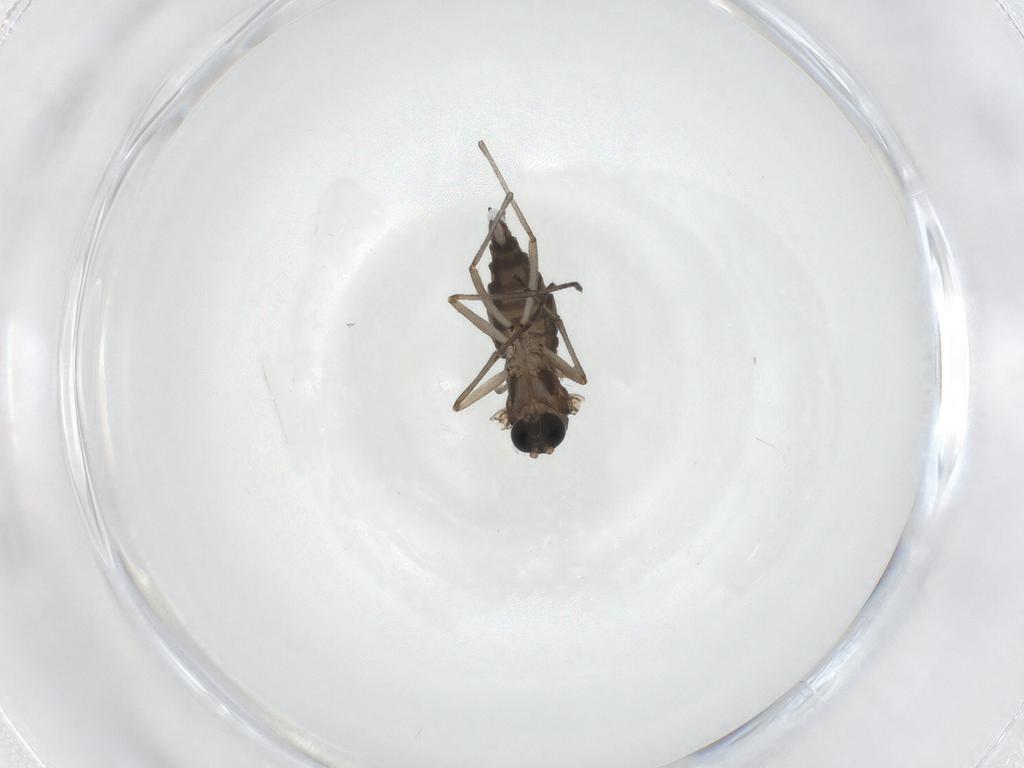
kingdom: Animalia
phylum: Arthropoda
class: Insecta
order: Diptera
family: Sciaridae
